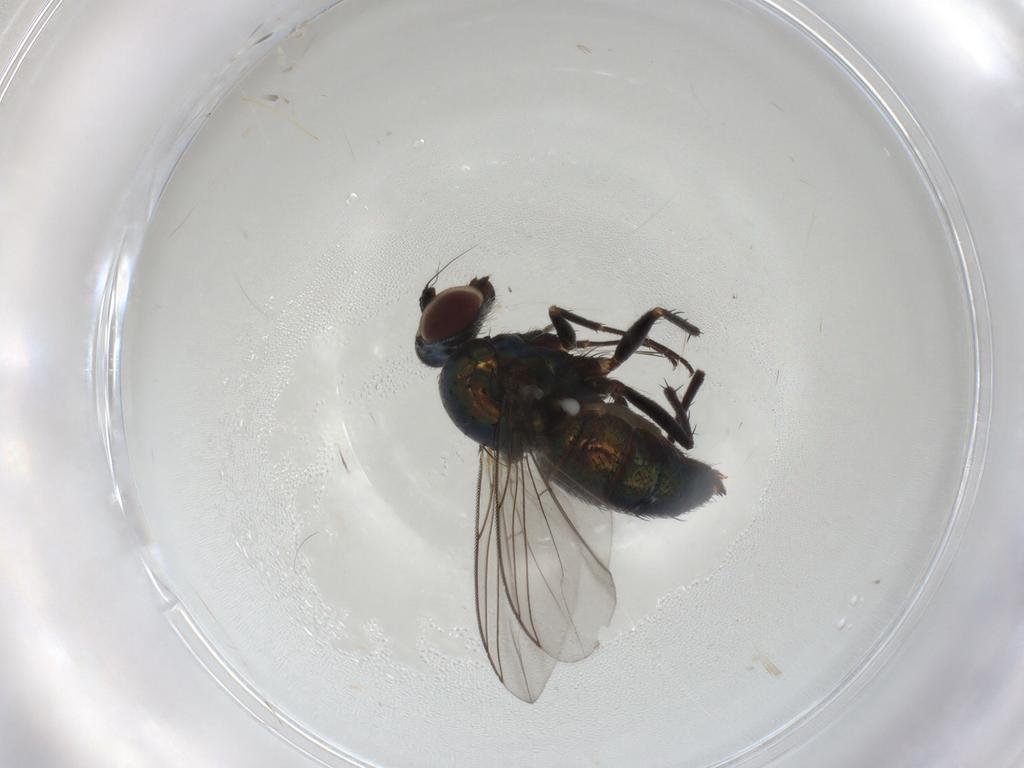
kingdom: Animalia
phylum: Arthropoda
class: Insecta
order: Diptera
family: Dolichopodidae
